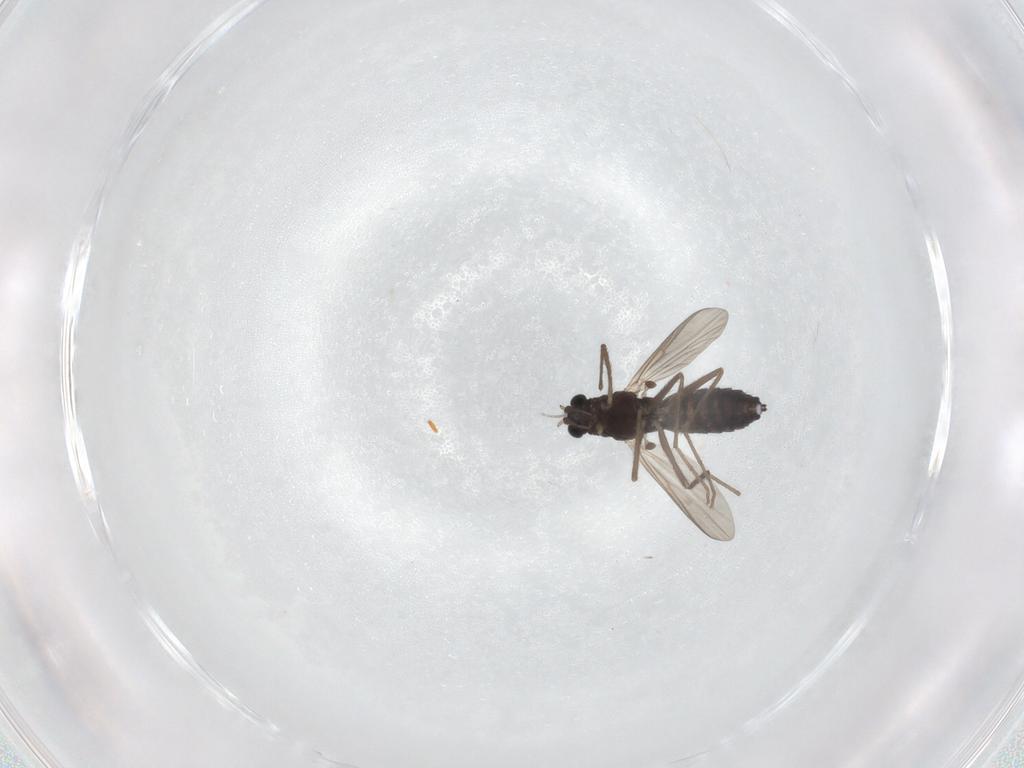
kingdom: Animalia
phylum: Arthropoda
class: Insecta
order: Diptera
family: Chironomidae
